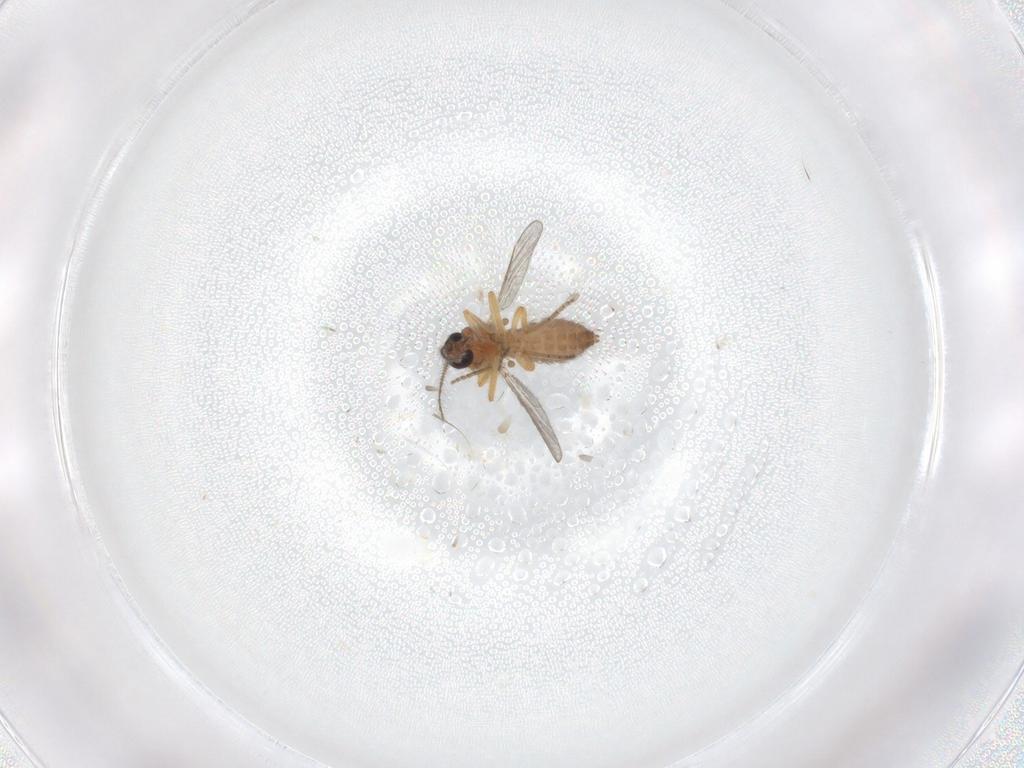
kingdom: Animalia
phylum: Arthropoda
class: Insecta
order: Diptera
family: Ceratopogonidae
